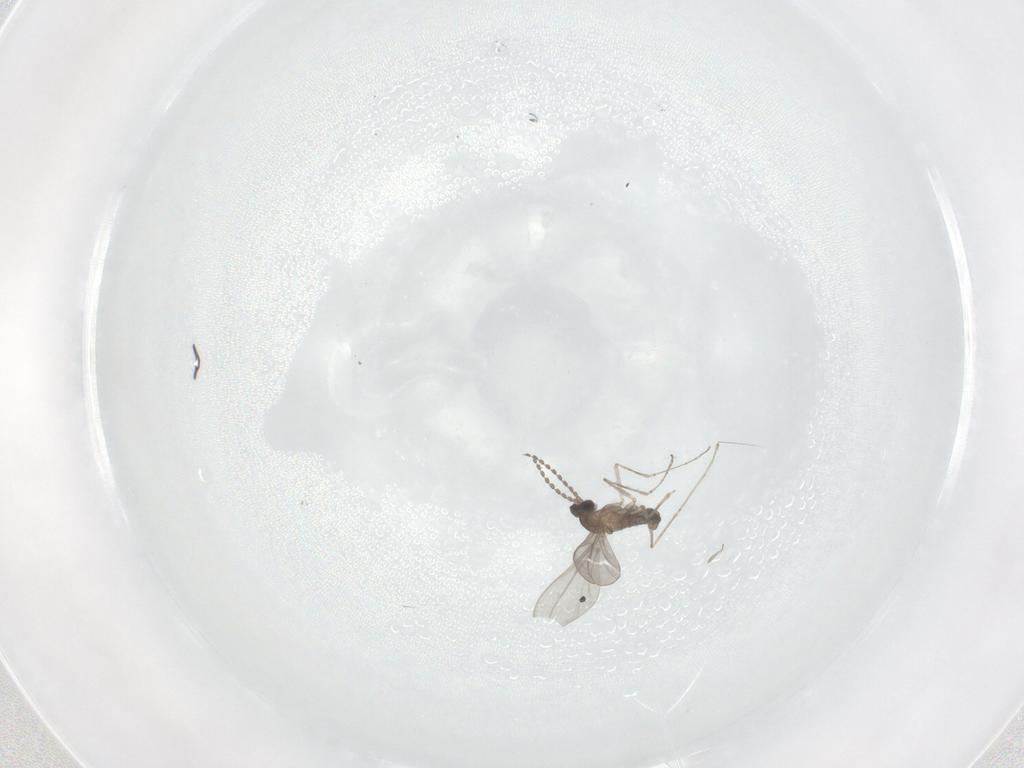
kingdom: Animalia
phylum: Arthropoda
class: Insecta
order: Diptera
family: Cecidomyiidae
